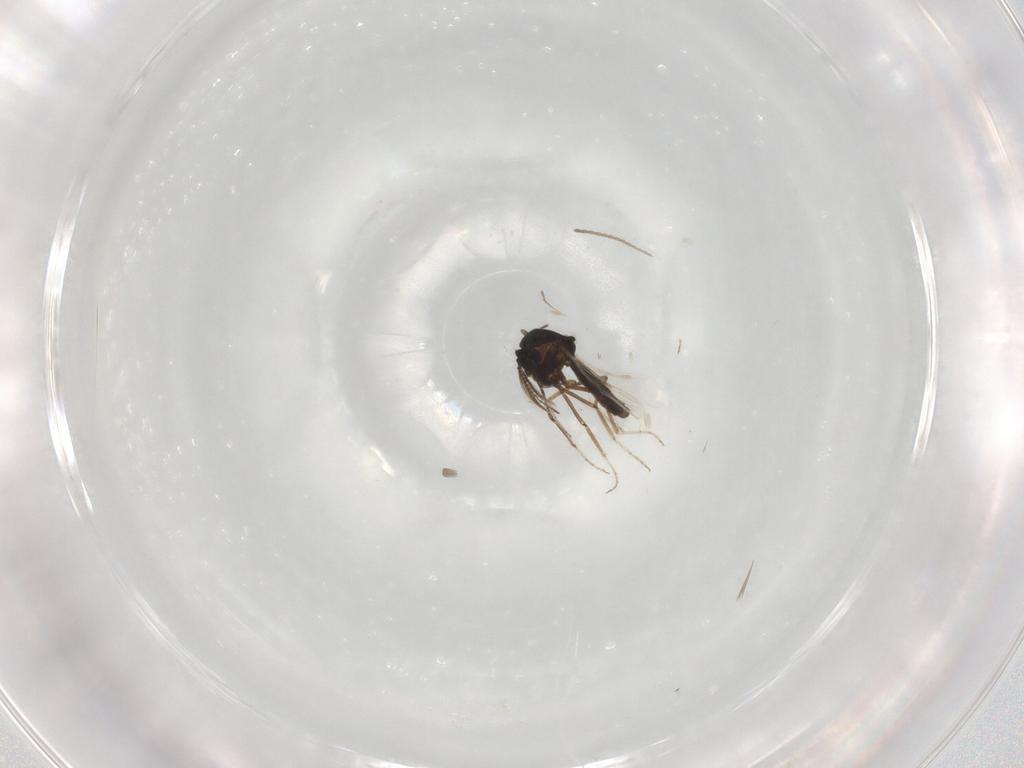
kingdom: Animalia
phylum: Arthropoda
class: Insecta
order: Diptera
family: Ceratopogonidae
